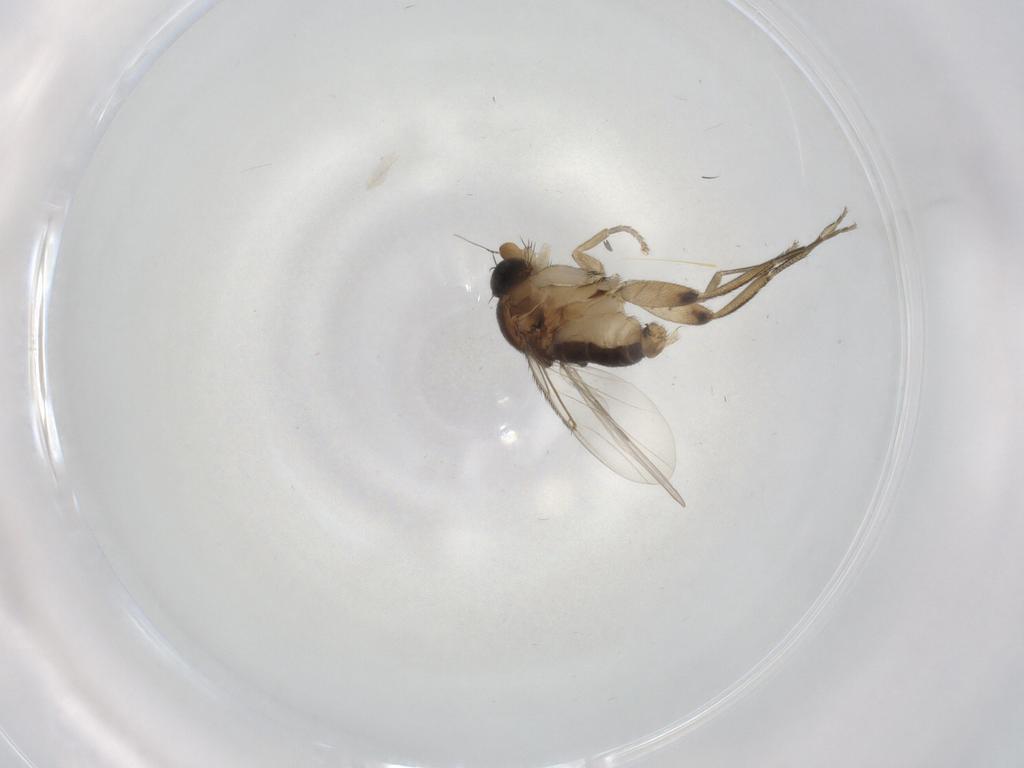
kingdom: Animalia
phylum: Arthropoda
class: Insecta
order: Diptera
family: Phoridae
